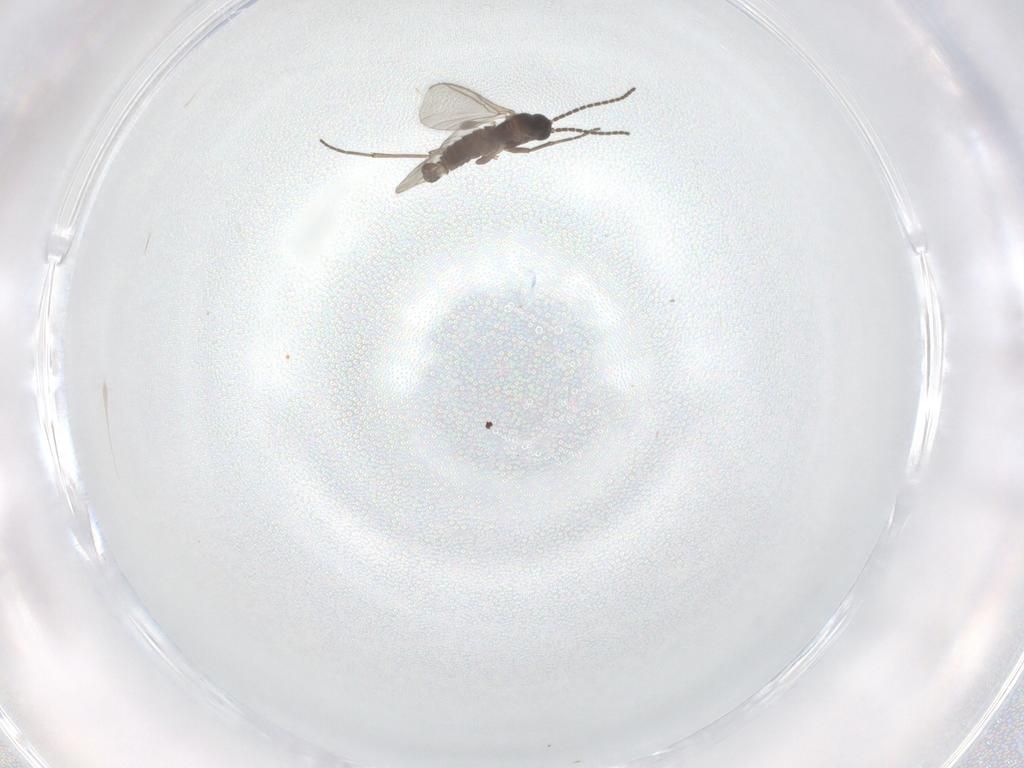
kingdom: Animalia
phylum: Arthropoda
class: Insecta
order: Diptera
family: Sciaridae
